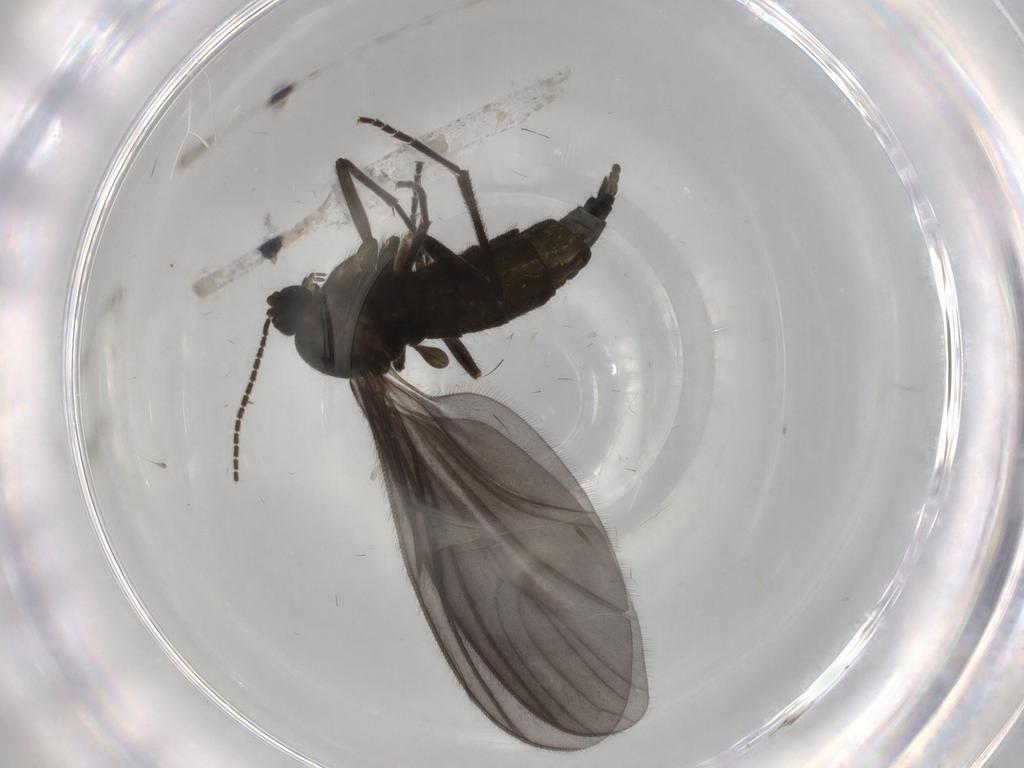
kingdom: Animalia
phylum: Arthropoda
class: Insecta
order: Diptera
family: Sciaridae
